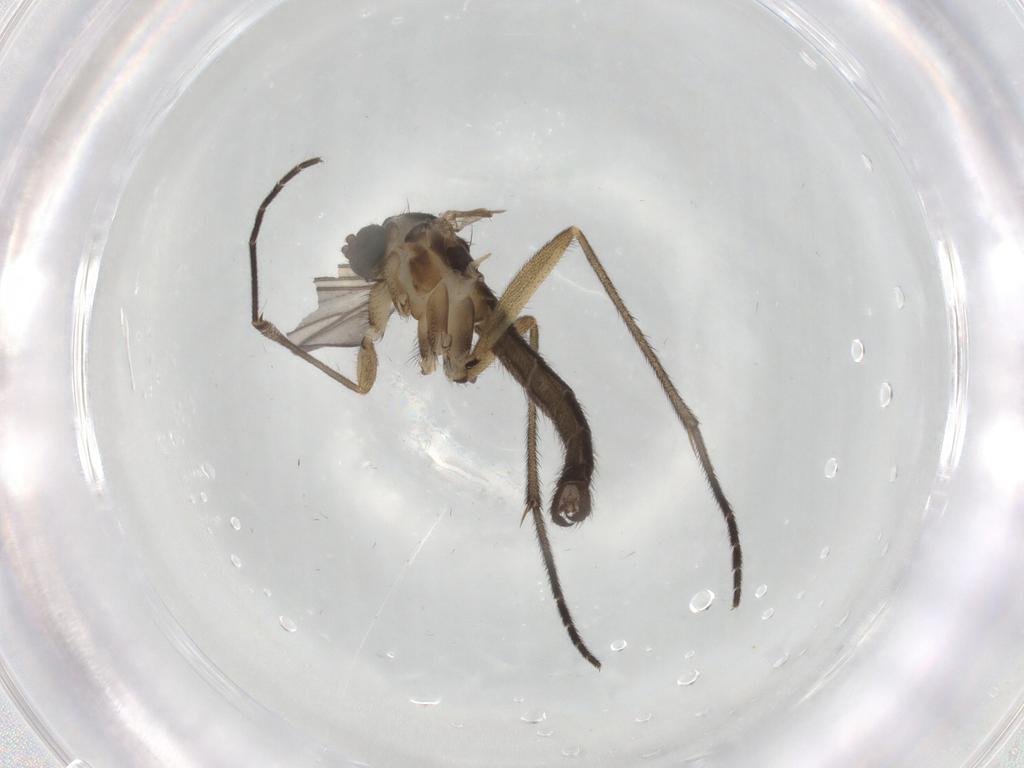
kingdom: Animalia
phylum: Arthropoda
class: Insecta
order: Diptera
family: Sciaridae
